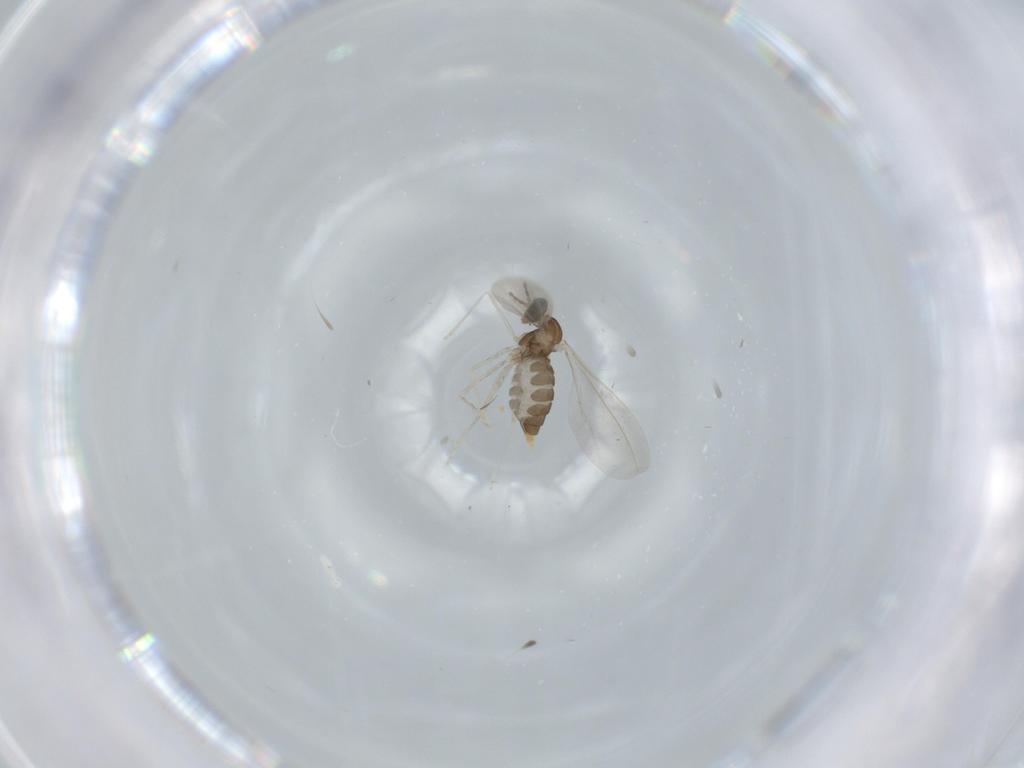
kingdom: Animalia
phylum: Arthropoda
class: Insecta
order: Diptera
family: Cecidomyiidae
